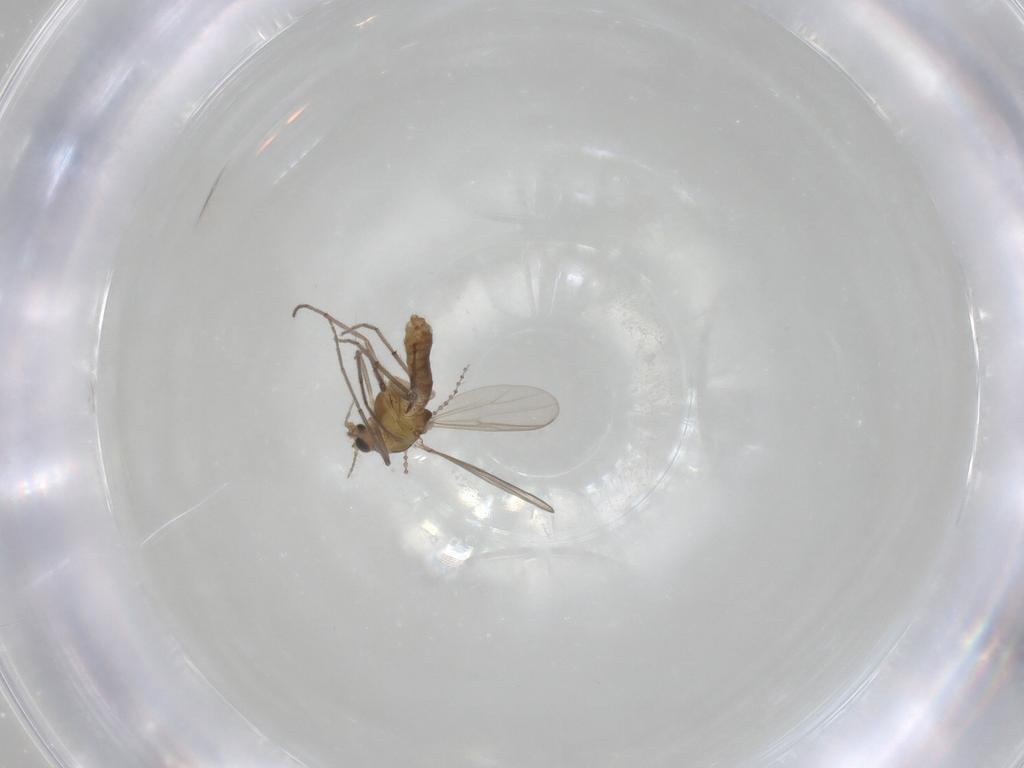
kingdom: Animalia
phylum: Arthropoda
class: Insecta
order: Diptera
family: Chironomidae
